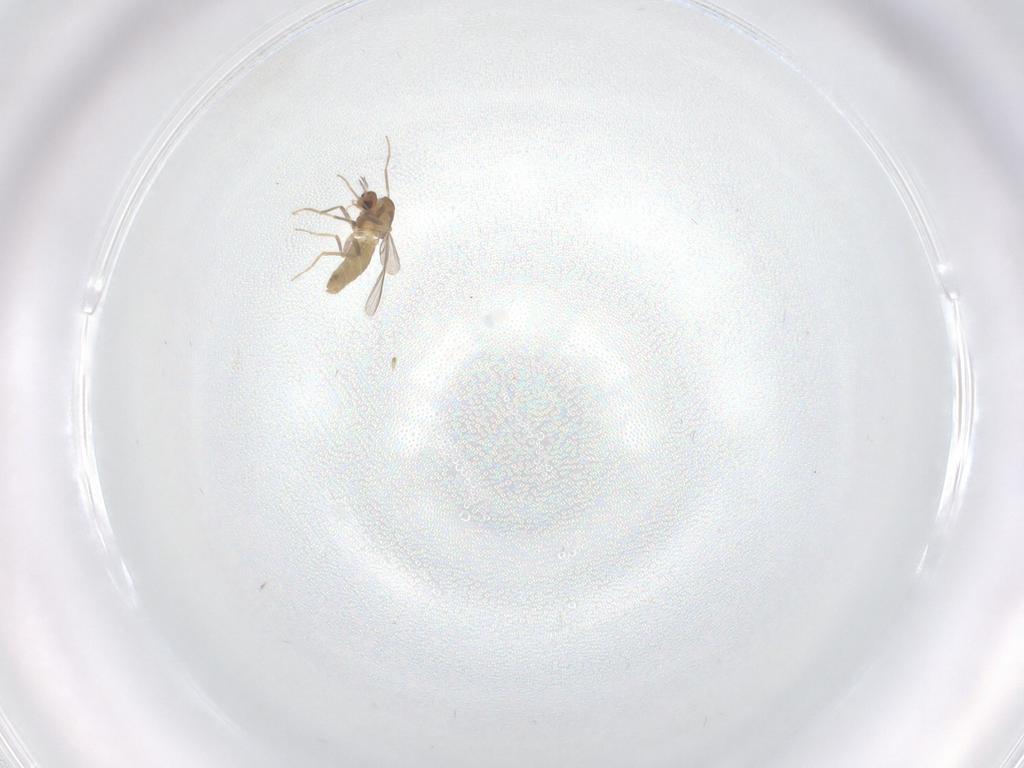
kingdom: Animalia
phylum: Arthropoda
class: Insecta
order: Diptera
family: Chironomidae
